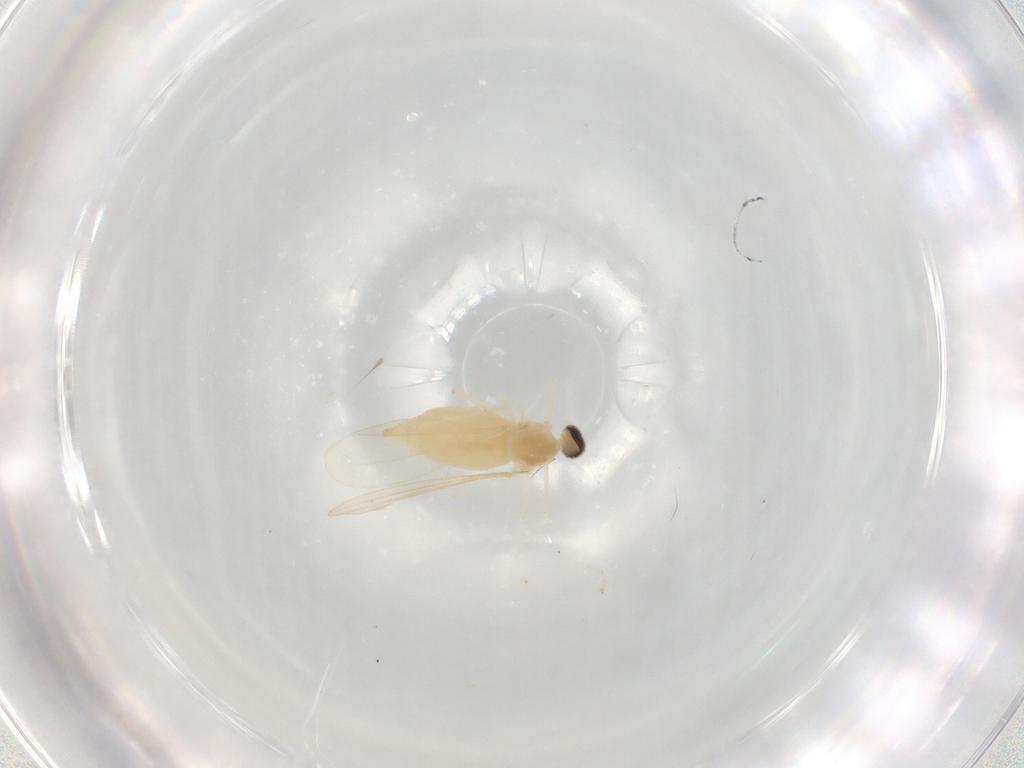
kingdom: Animalia
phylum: Arthropoda
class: Insecta
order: Diptera
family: Cecidomyiidae
